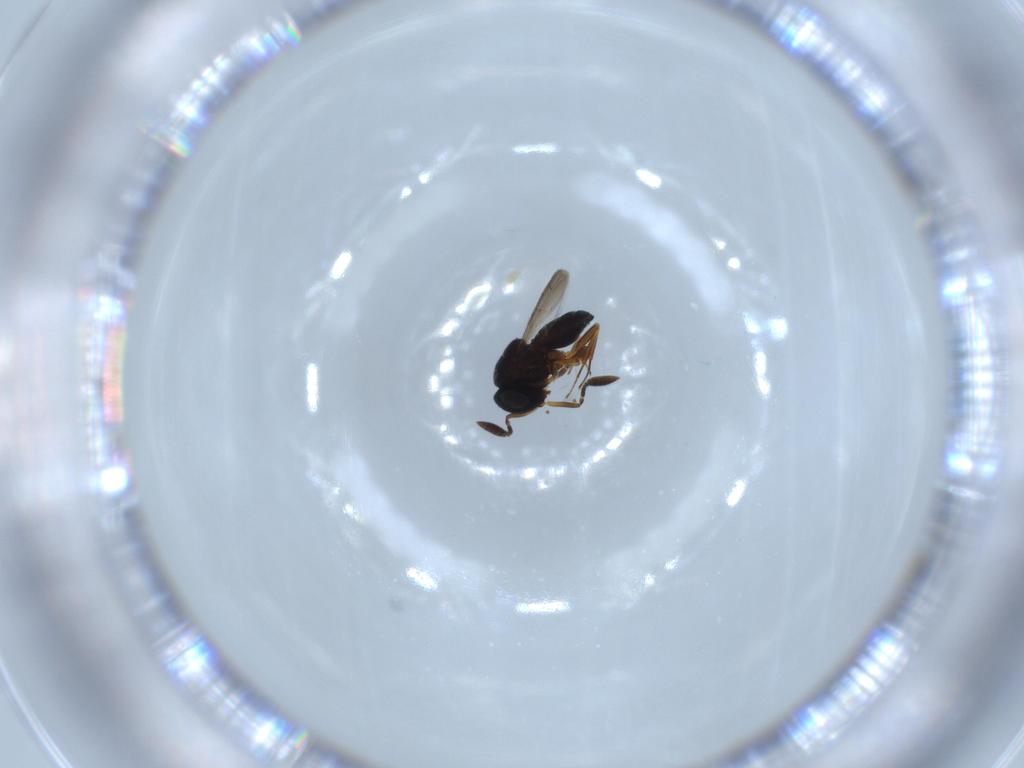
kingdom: Animalia
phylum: Arthropoda
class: Insecta
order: Coleoptera
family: Curculionidae
